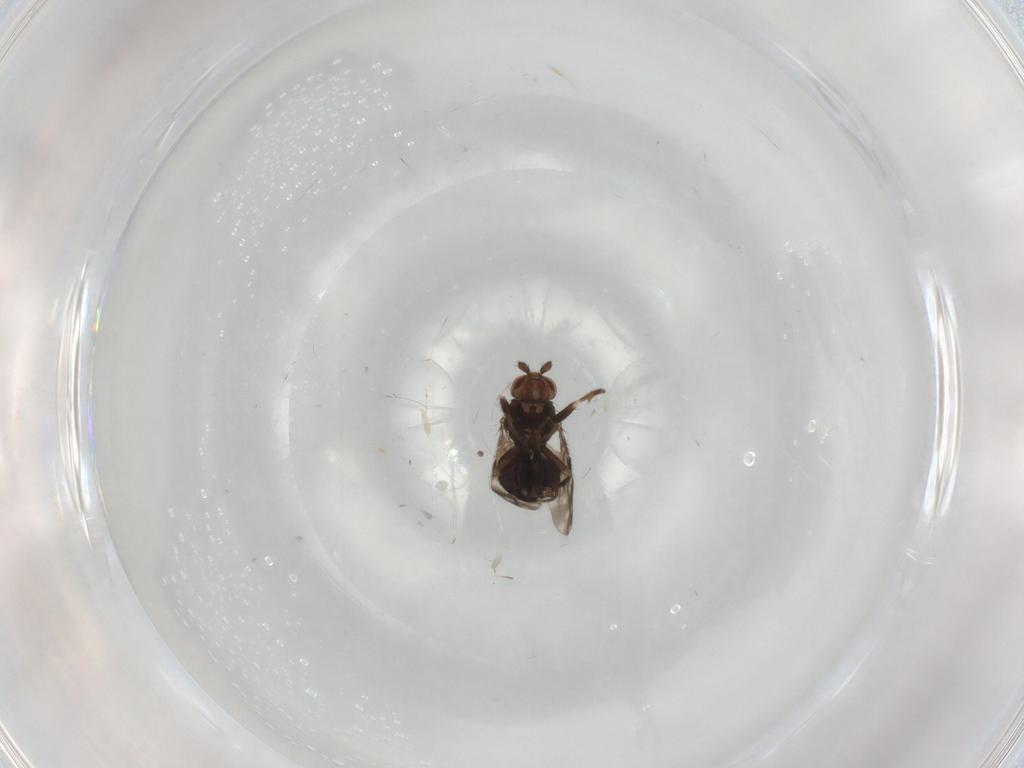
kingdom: Animalia
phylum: Arthropoda
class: Insecta
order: Diptera
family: Sphaeroceridae
